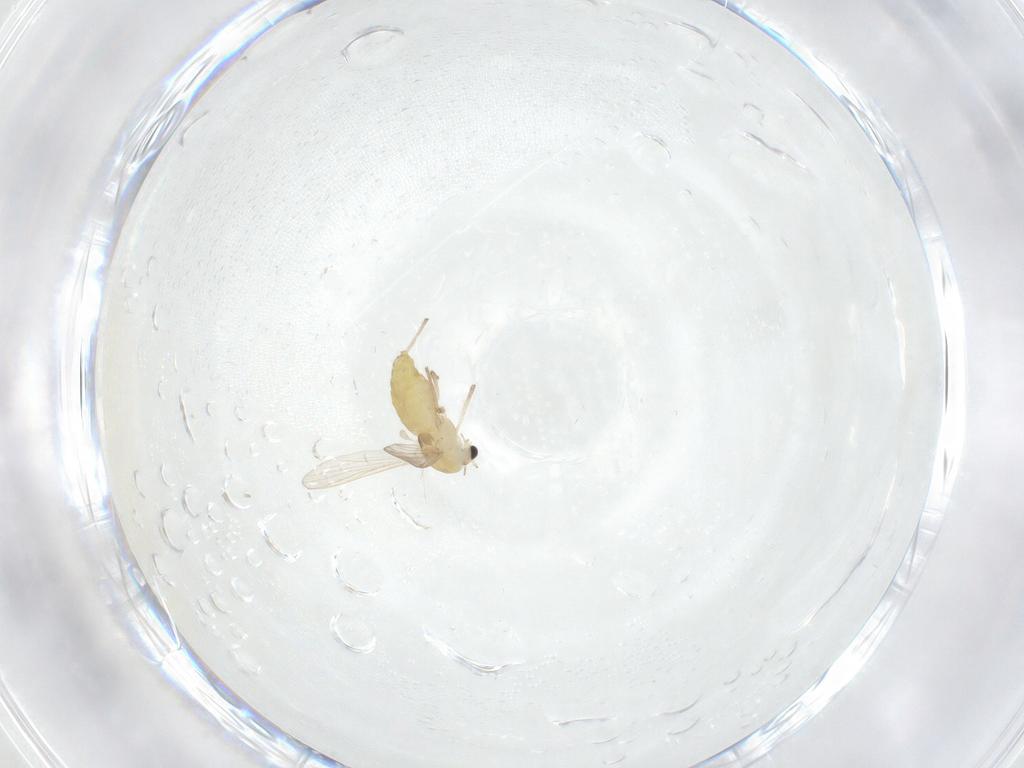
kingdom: Animalia
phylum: Arthropoda
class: Insecta
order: Diptera
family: Chironomidae
